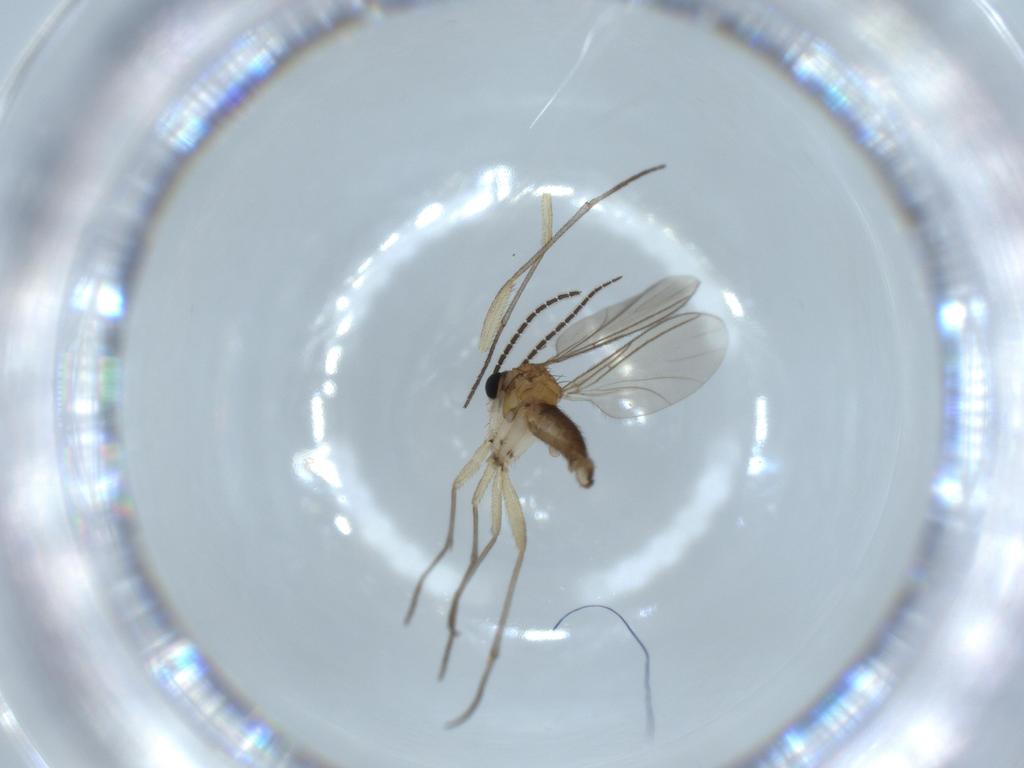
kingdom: Animalia
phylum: Arthropoda
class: Insecta
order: Diptera
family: Sciaridae
